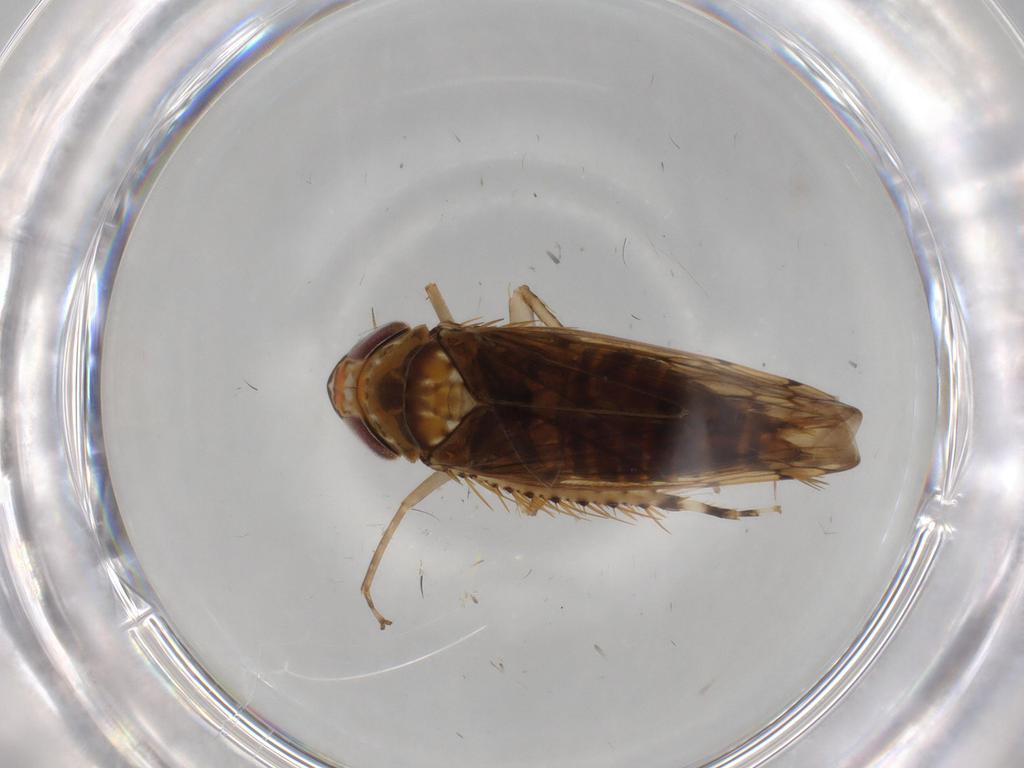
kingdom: Animalia
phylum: Arthropoda
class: Insecta
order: Hemiptera
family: Cicadellidae
